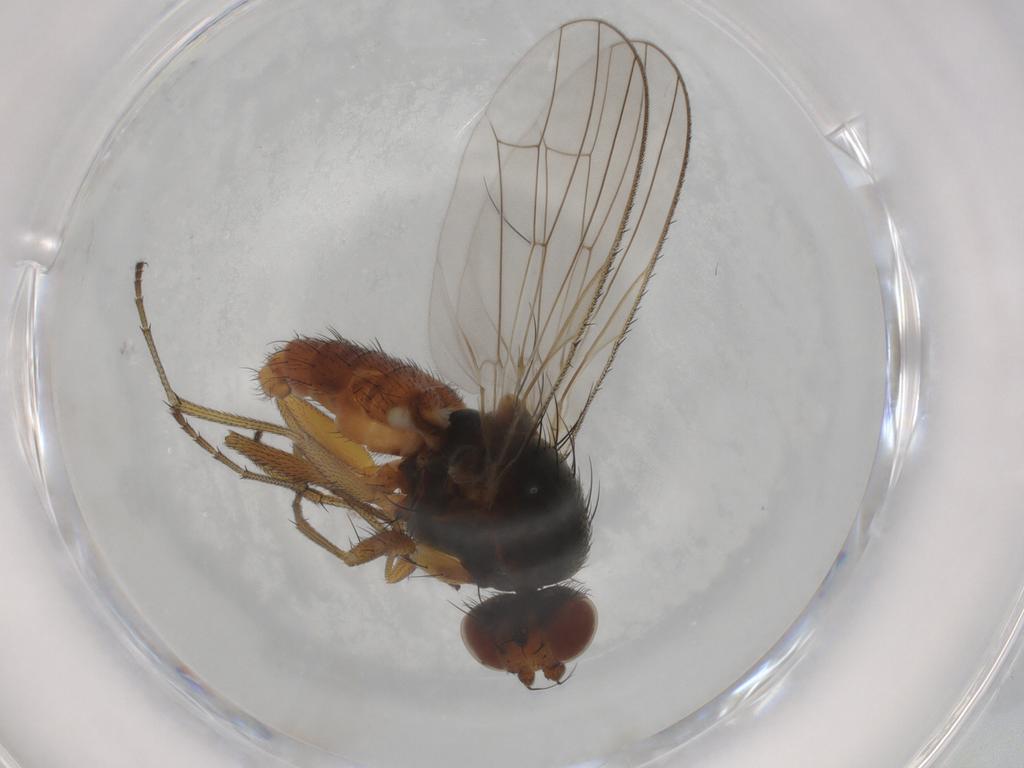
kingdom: Animalia
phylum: Arthropoda
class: Insecta
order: Diptera
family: Heleomyzidae
